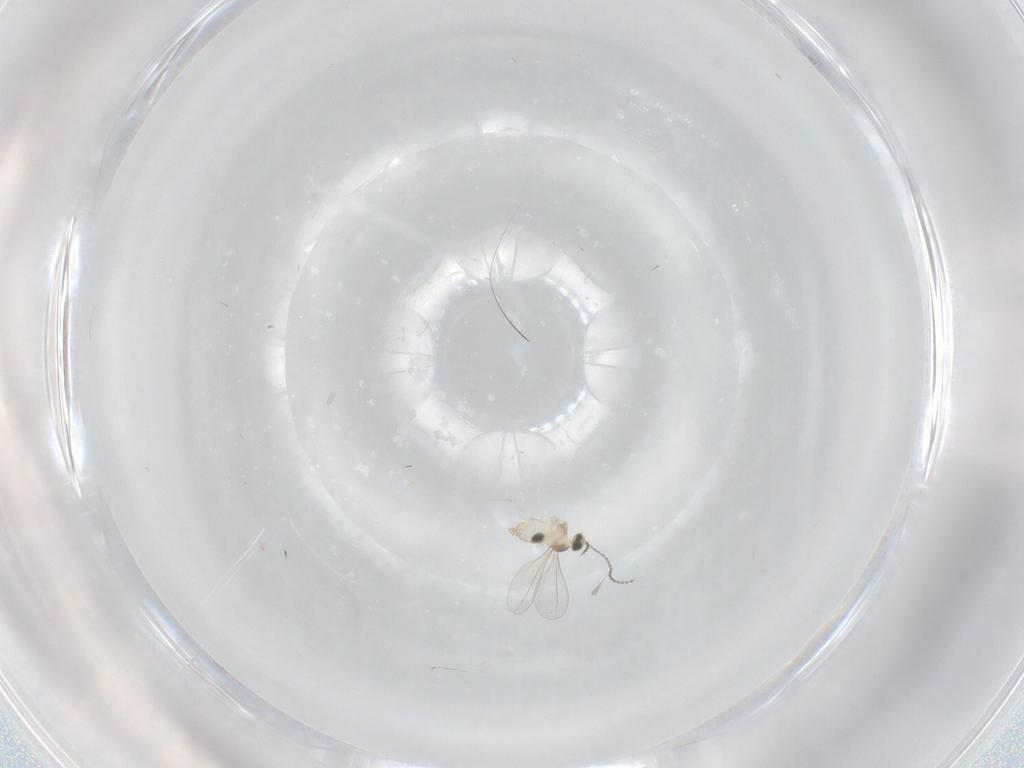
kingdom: Animalia
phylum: Arthropoda
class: Insecta
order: Diptera
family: Cecidomyiidae
